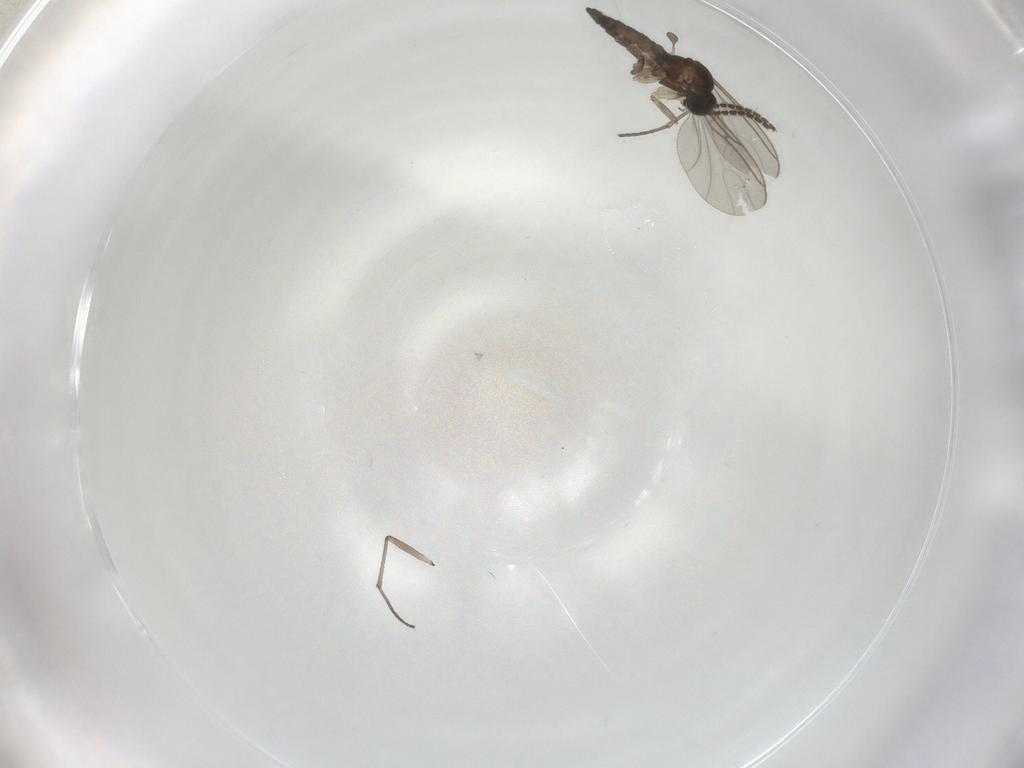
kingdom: Animalia
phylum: Arthropoda
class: Insecta
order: Diptera
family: Sciaridae
